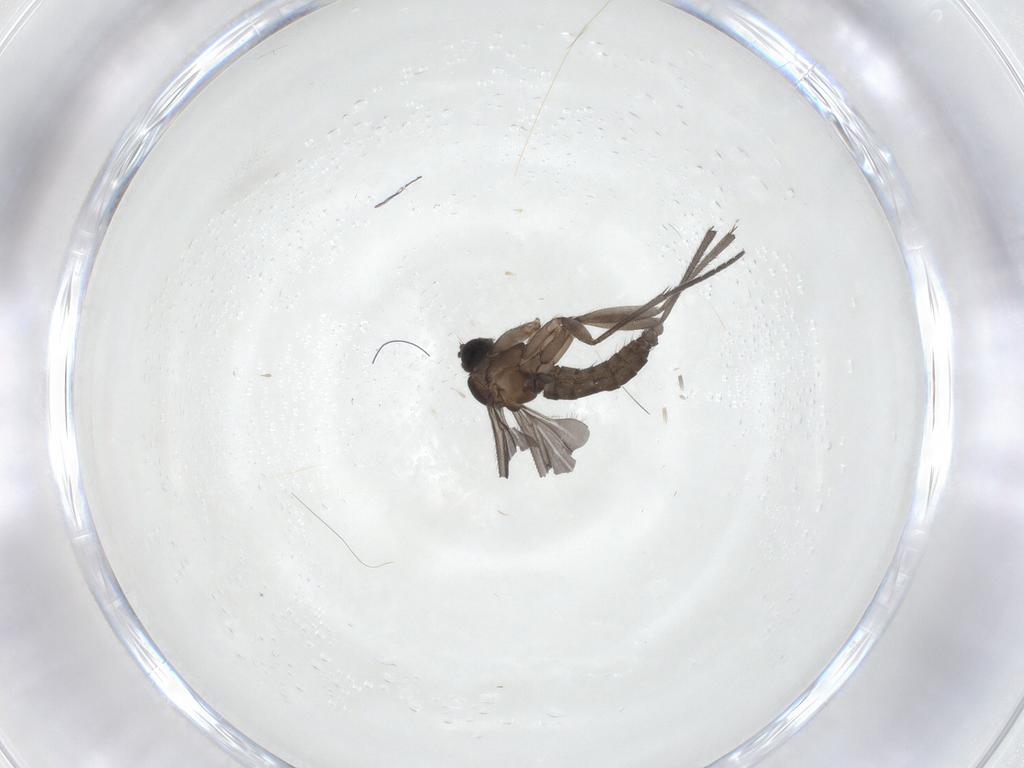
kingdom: Animalia
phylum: Arthropoda
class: Insecta
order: Diptera
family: Sciaridae
